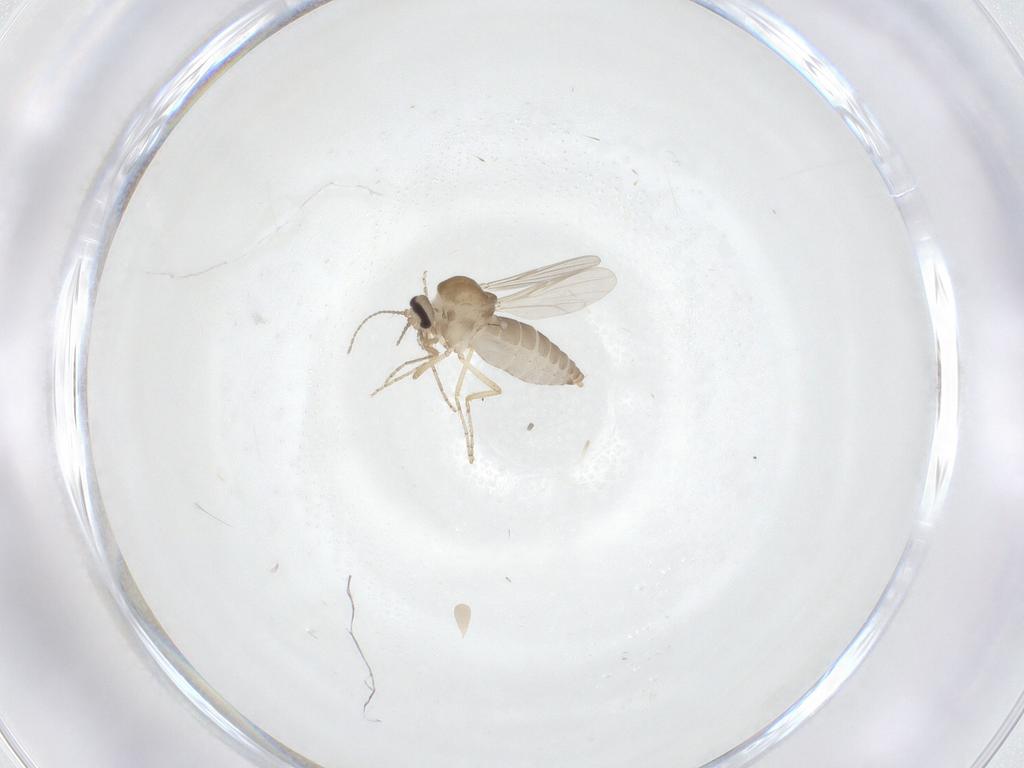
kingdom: Animalia
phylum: Arthropoda
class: Insecta
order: Diptera
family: Ceratopogonidae
